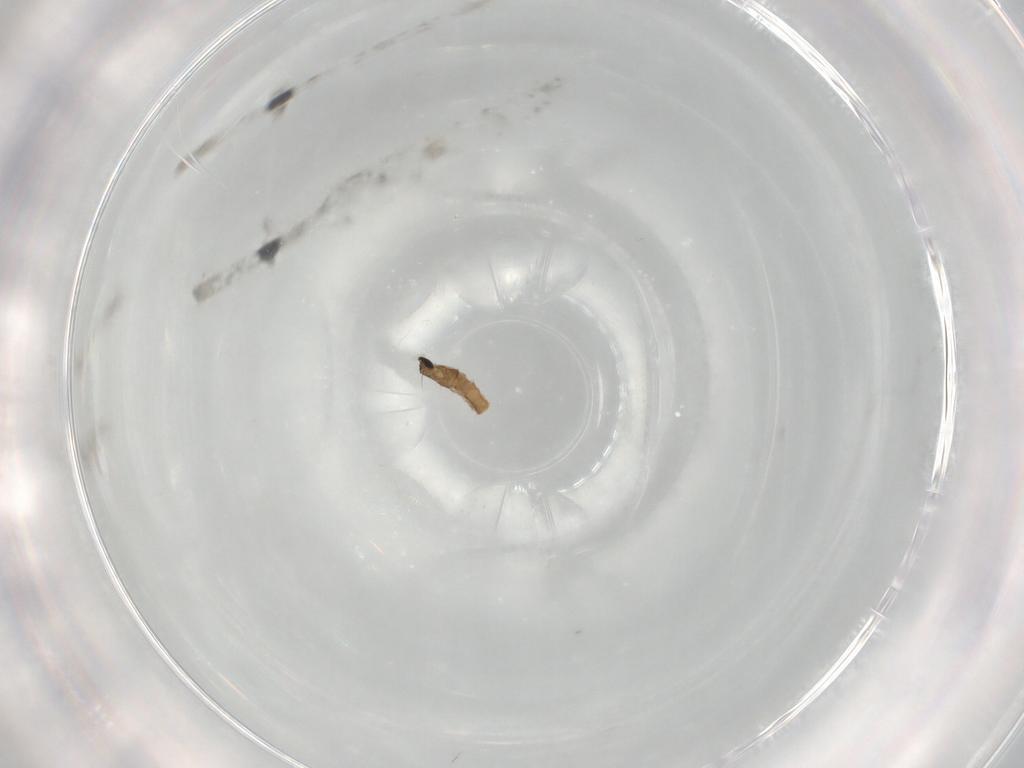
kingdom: Animalia
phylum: Arthropoda
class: Insecta
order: Diptera
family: Cecidomyiidae
